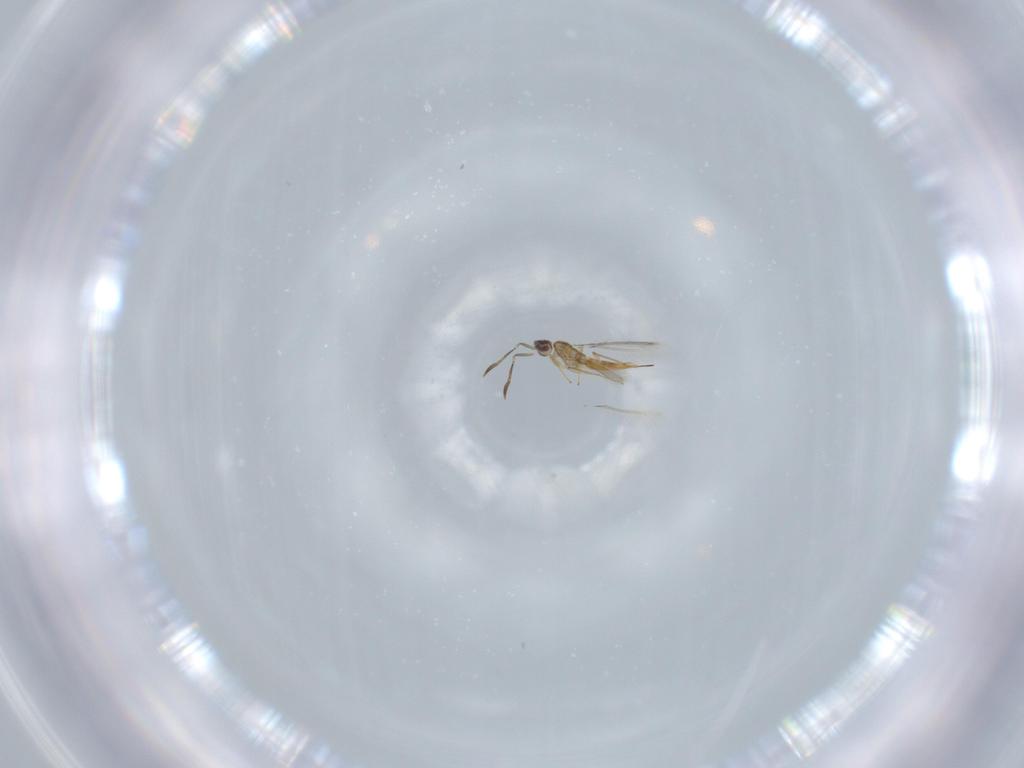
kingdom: Animalia
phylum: Arthropoda
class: Insecta
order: Hymenoptera
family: Mymaridae
